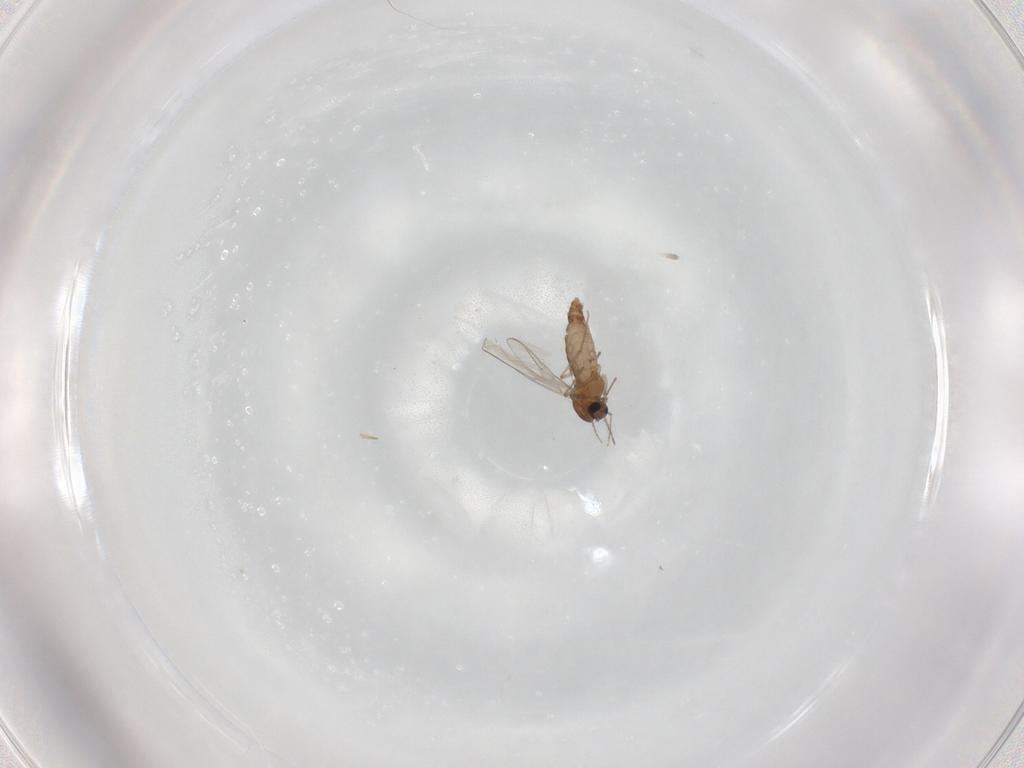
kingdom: Animalia
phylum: Arthropoda
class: Insecta
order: Diptera
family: Chironomidae
